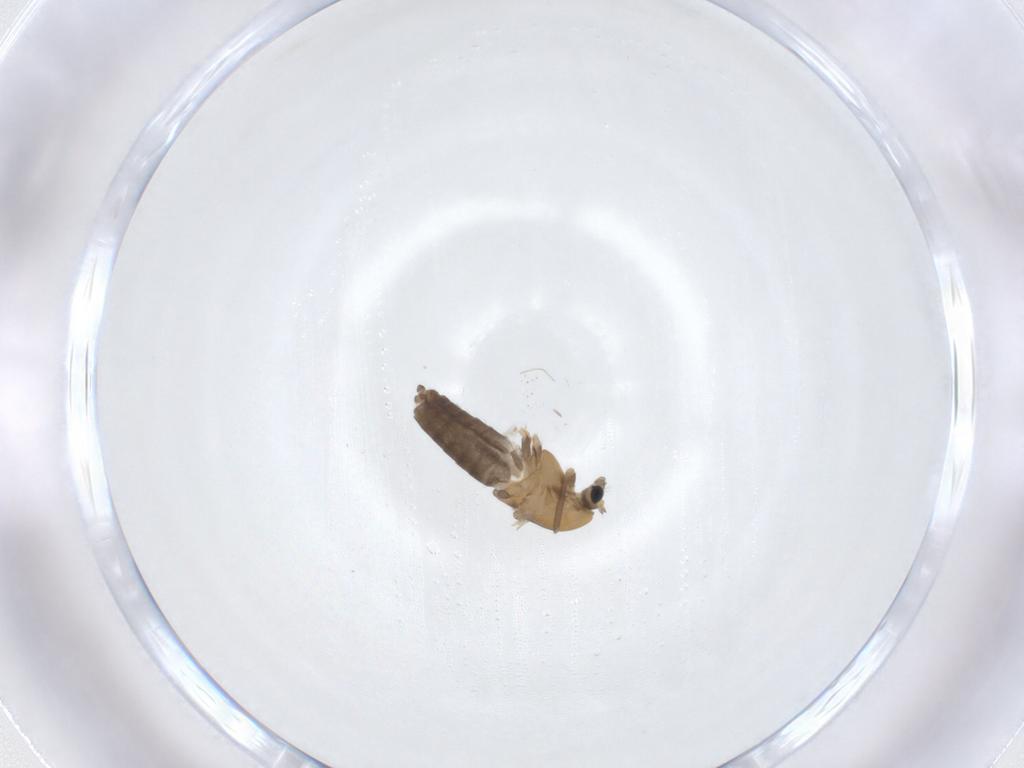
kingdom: Animalia
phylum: Arthropoda
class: Insecta
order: Diptera
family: Chironomidae
